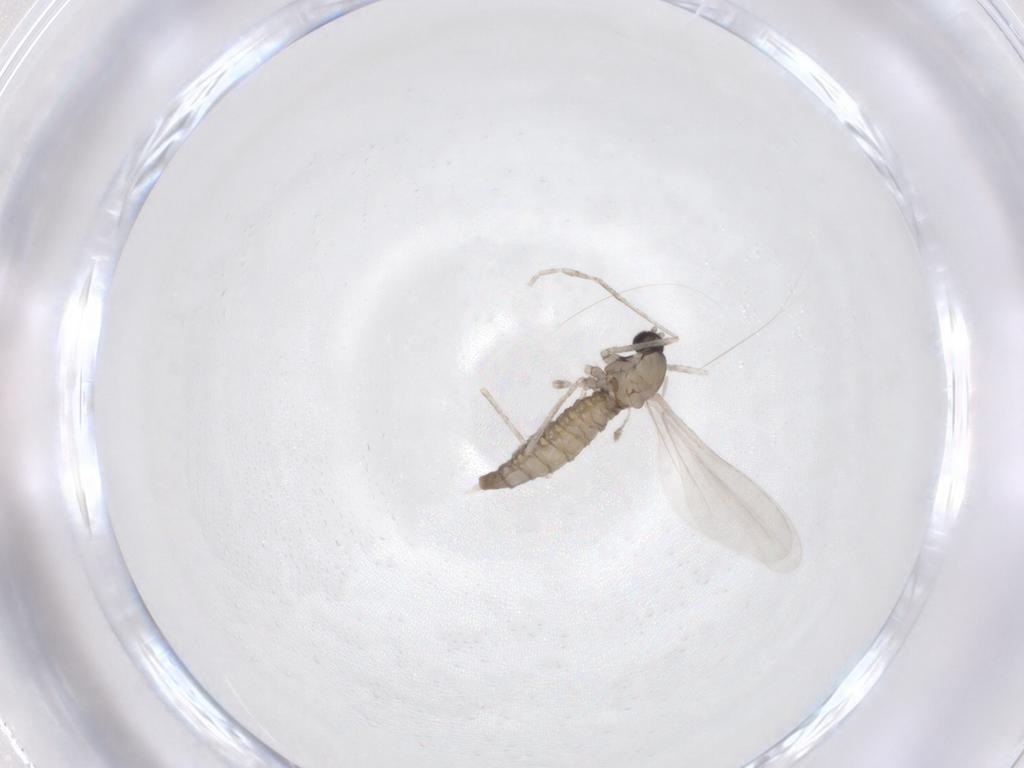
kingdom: Animalia
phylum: Arthropoda
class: Insecta
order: Diptera
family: Cecidomyiidae
